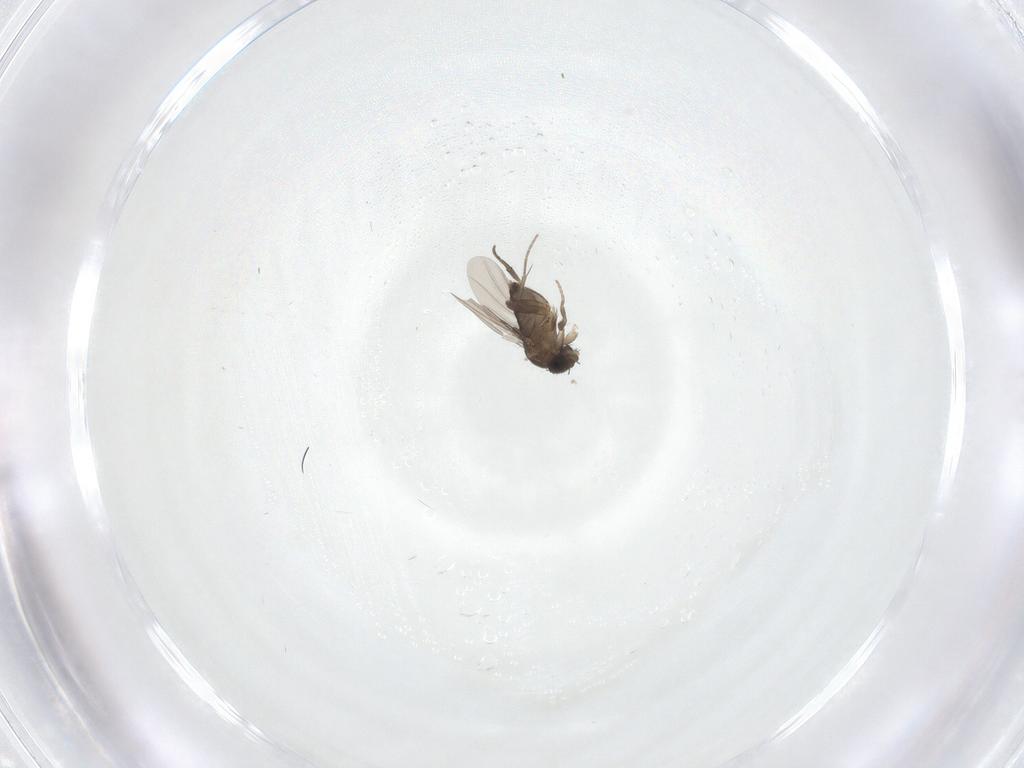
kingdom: Animalia
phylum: Arthropoda
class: Insecta
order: Diptera
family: Phoridae
